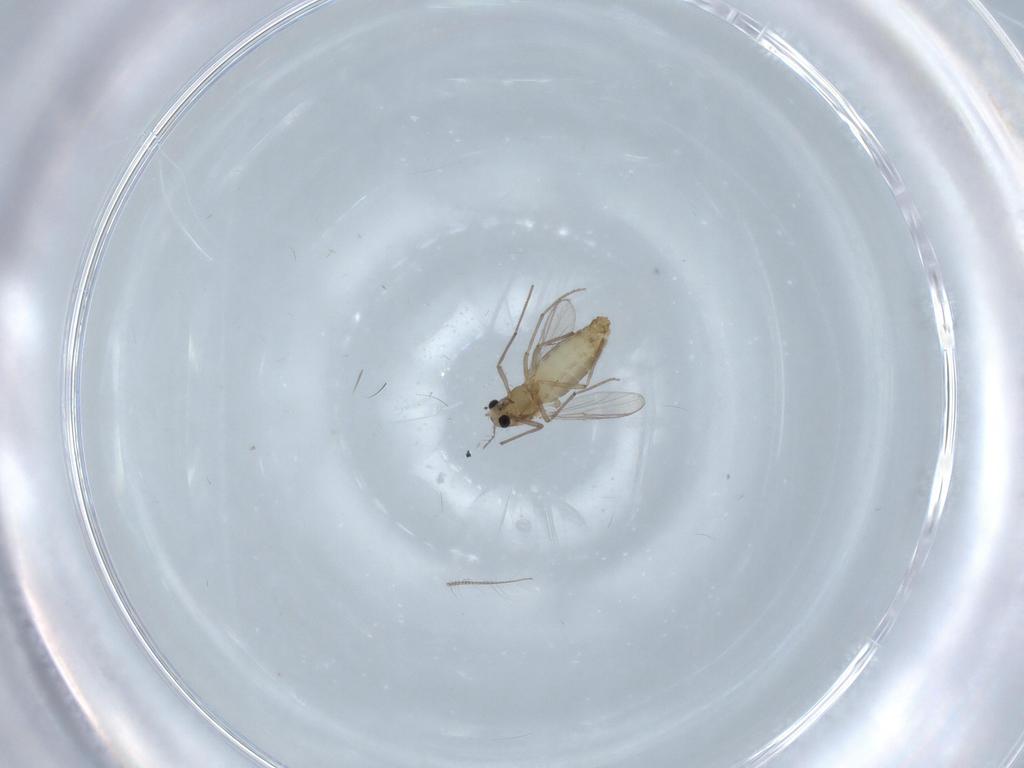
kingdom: Animalia
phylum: Arthropoda
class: Insecta
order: Diptera
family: Chironomidae
